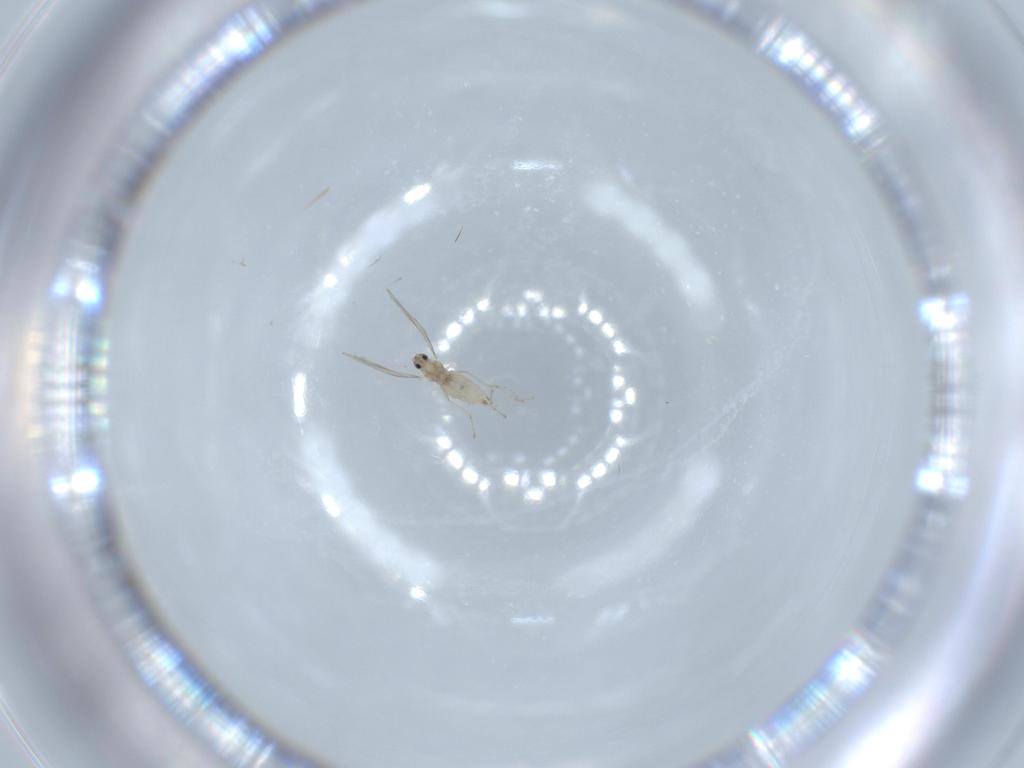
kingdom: Animalia
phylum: Arthropoda
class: Insecta
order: Diptera
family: Cecidomyiidae
